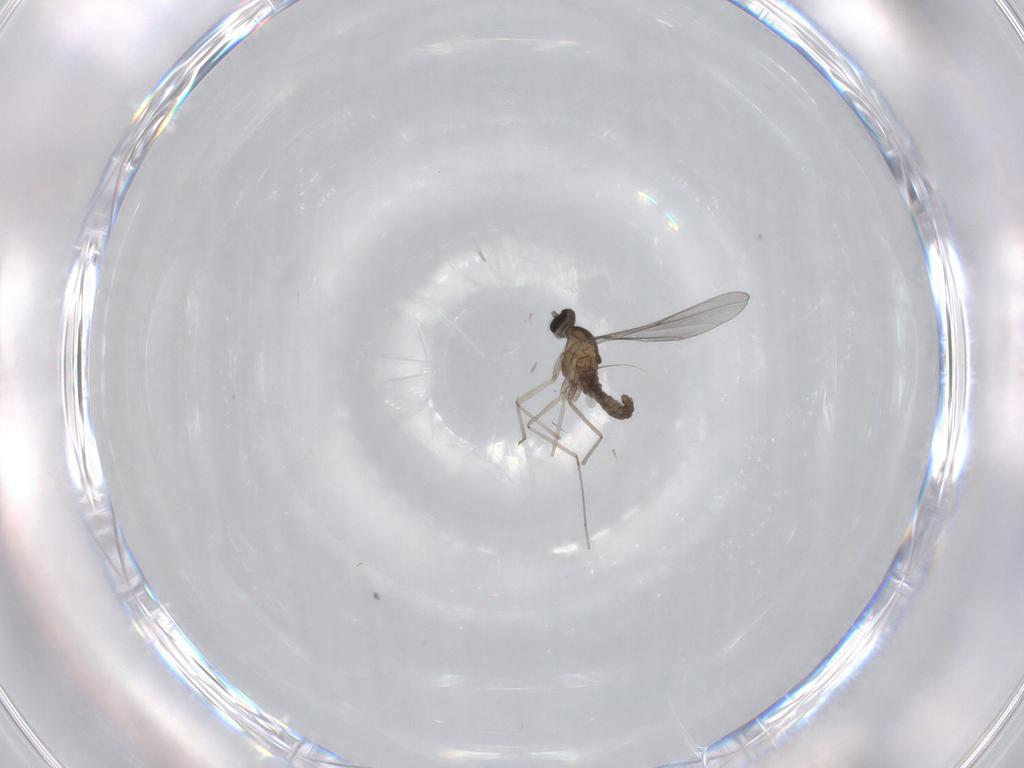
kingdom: Animalia
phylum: Arthropoda
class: Insecta
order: Diptera
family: Cecidomyiidae
